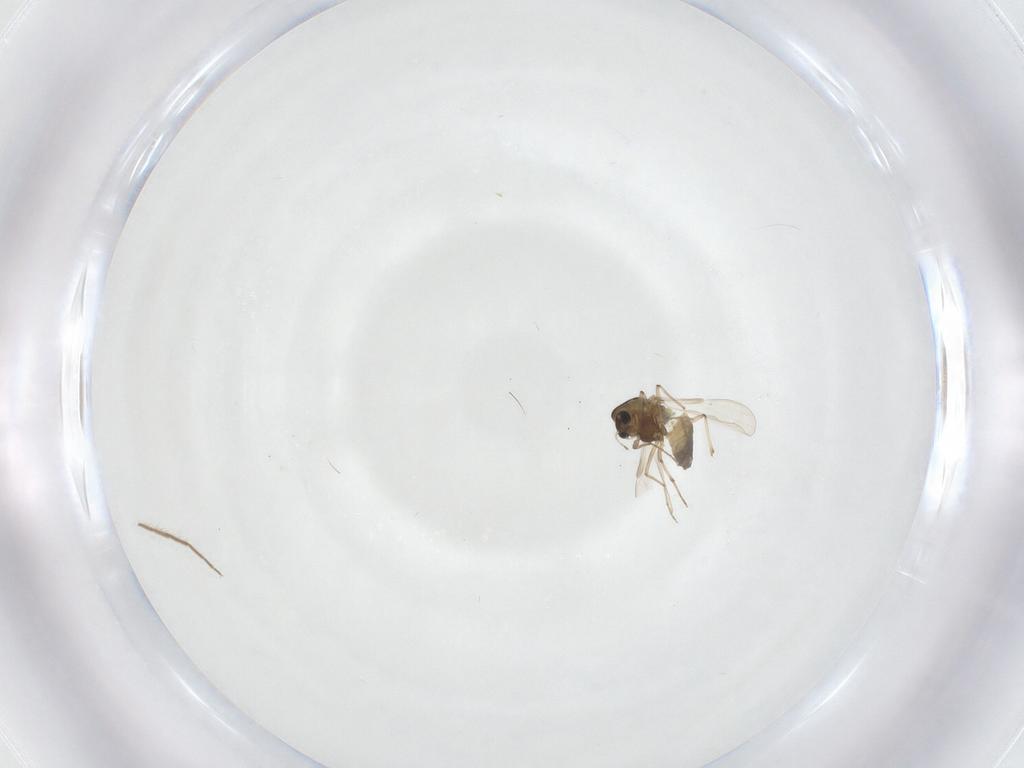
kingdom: Animalia
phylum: Arthropoda
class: Insecta
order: Diptera
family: Chironomidae
